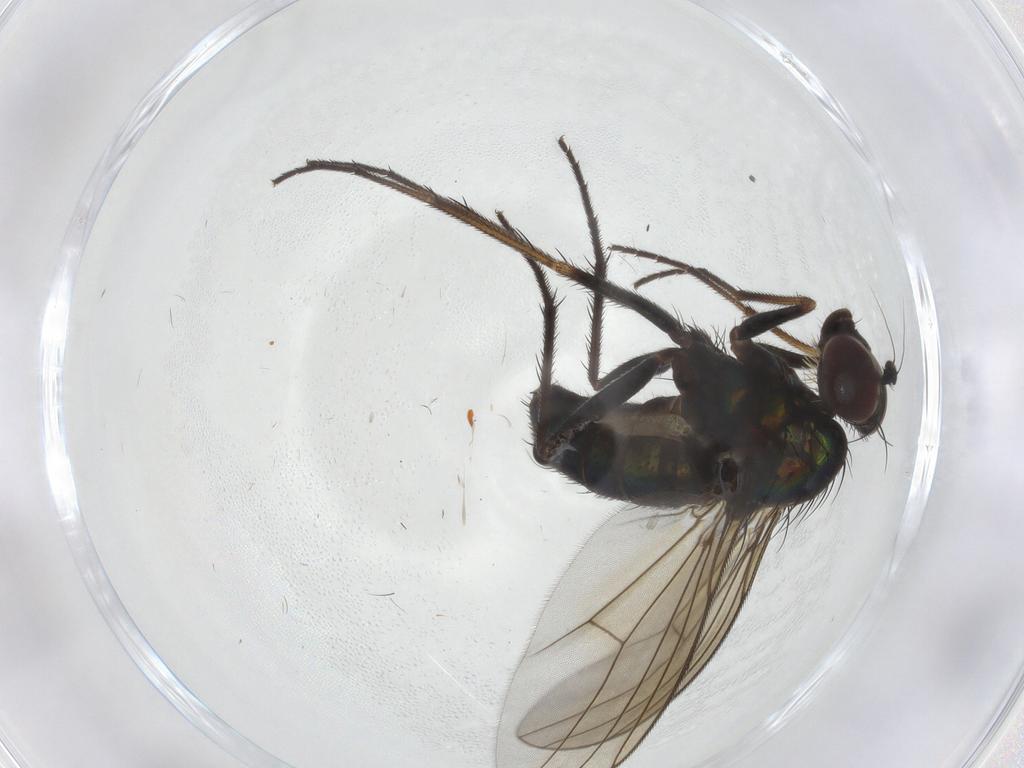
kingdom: Animalia
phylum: Arthropoda
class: Insecta
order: Diptera
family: Dolichopodidae
